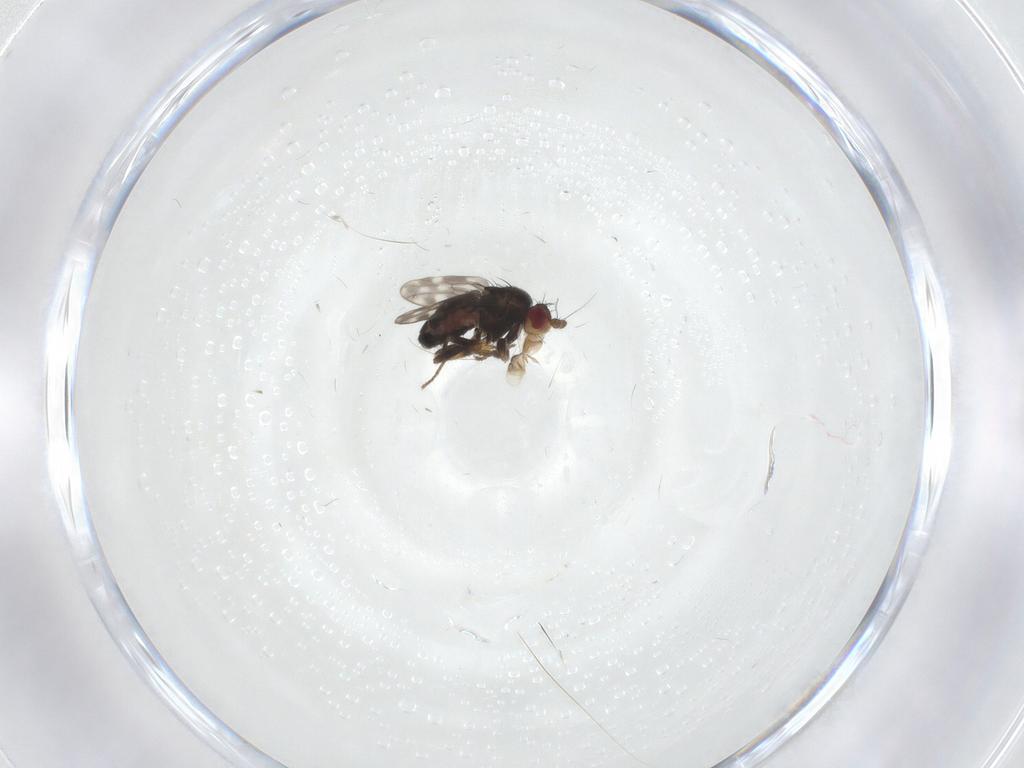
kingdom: Animalia
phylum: Arthropoda
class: Insecta
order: Diptera
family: Sphaeroceridae
